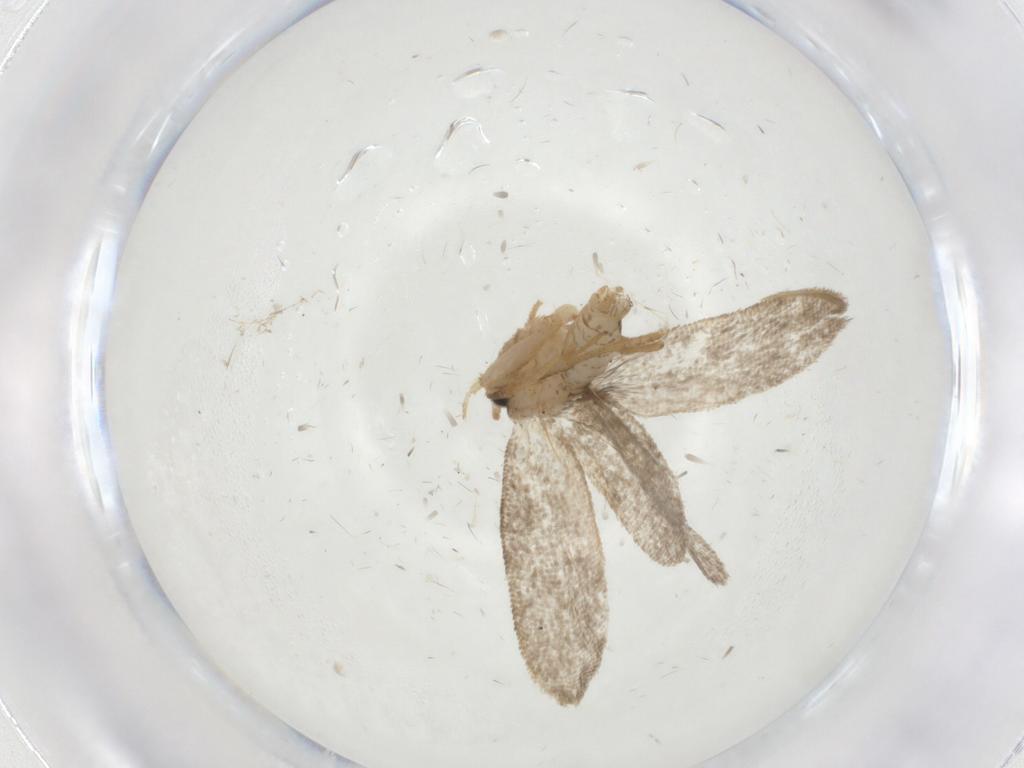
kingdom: Animalia
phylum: Arthropoda
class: Insecta
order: Lepidoptera
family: Psychidae
